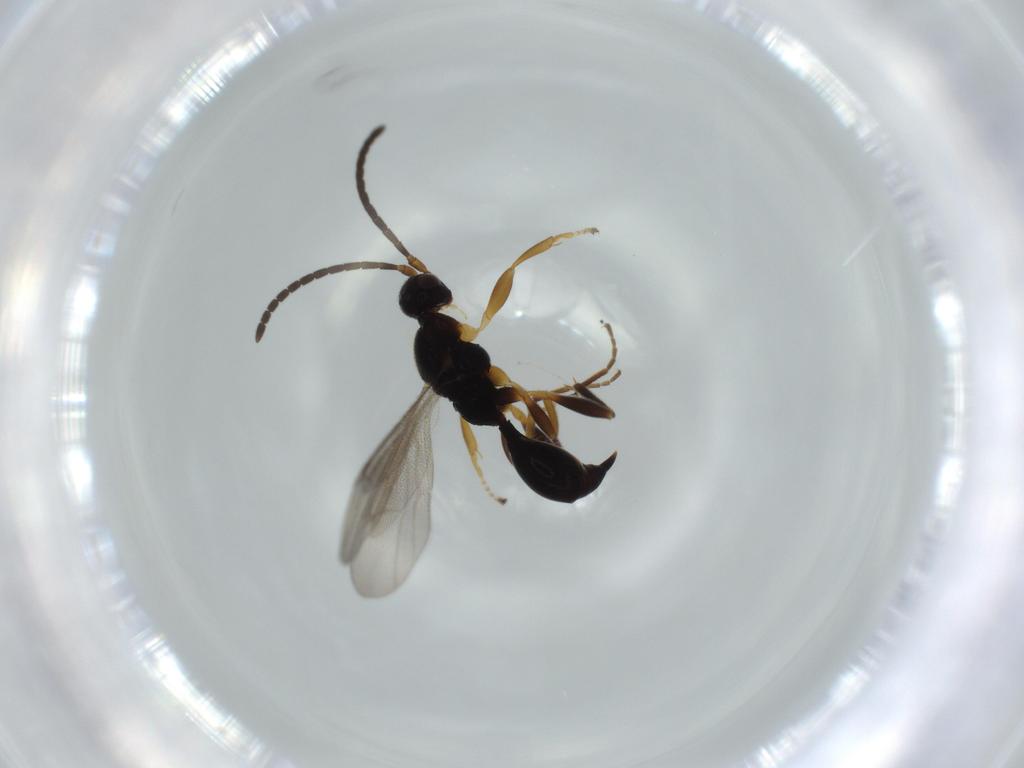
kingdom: Animalia
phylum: Arthropoda
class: Insecta
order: Hymenoptera
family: Proctotrupidae
